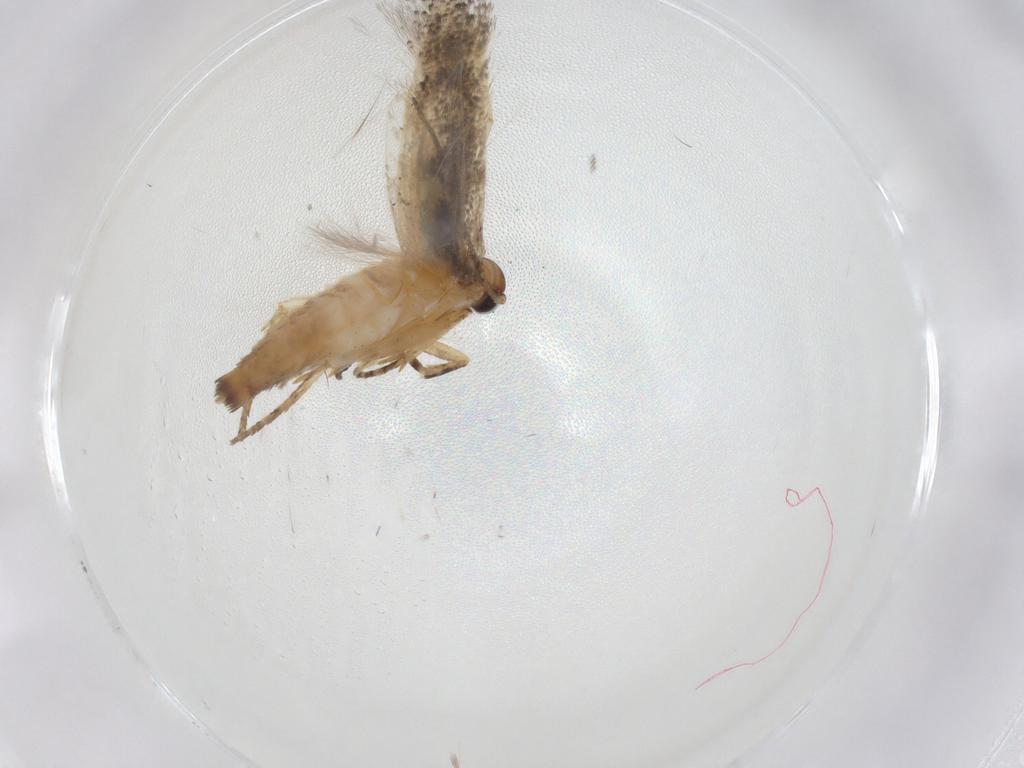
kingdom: Animalia
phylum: Arthropoda
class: Insecta
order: Lepidoptera
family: Gelechiidae
